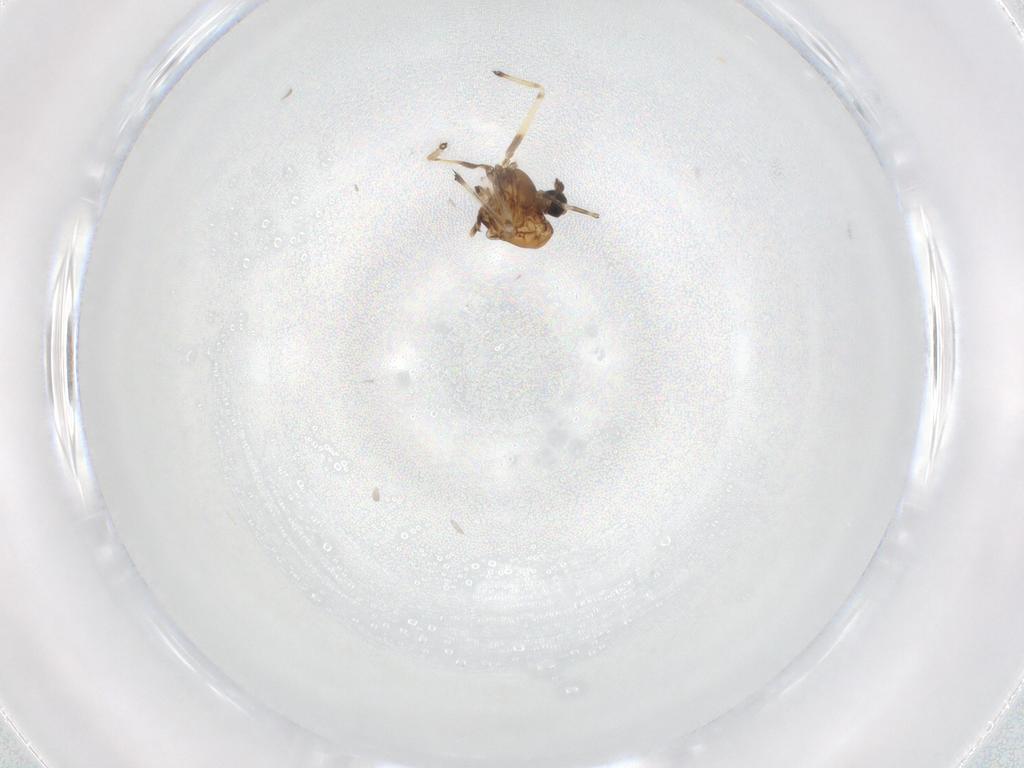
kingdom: Animalia
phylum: Arthropoda
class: Insecta
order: Diptera
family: Chironomidae
